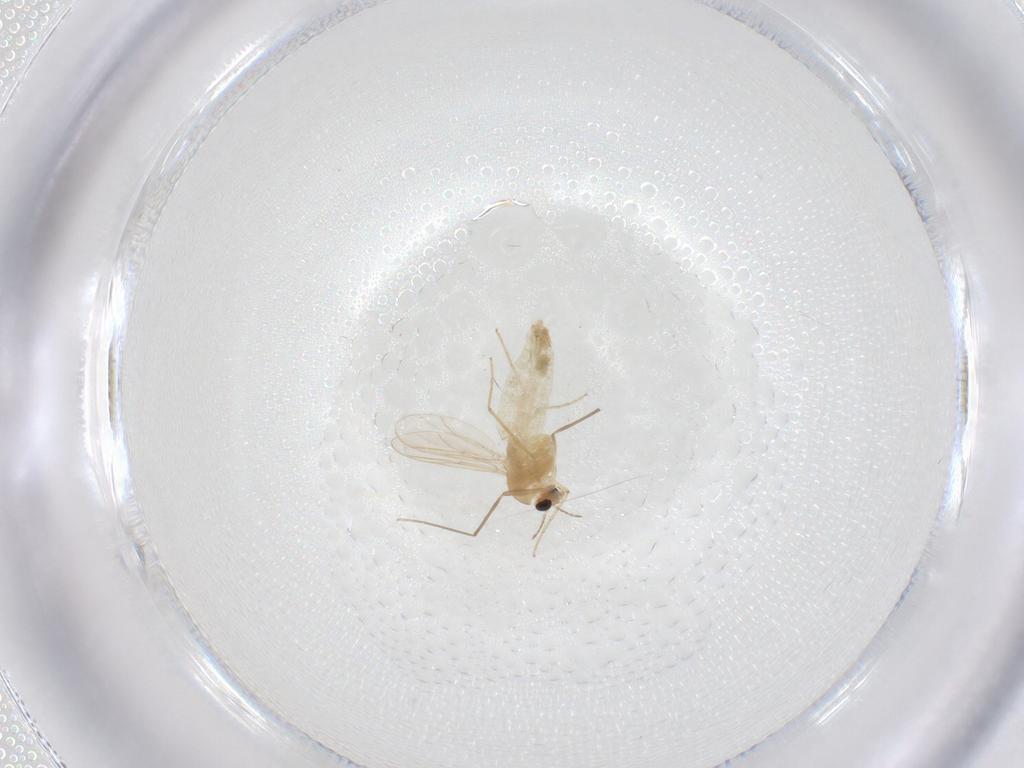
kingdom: Animalia
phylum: Arthropoda
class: Insecta
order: Diptera
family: Chironomidae
